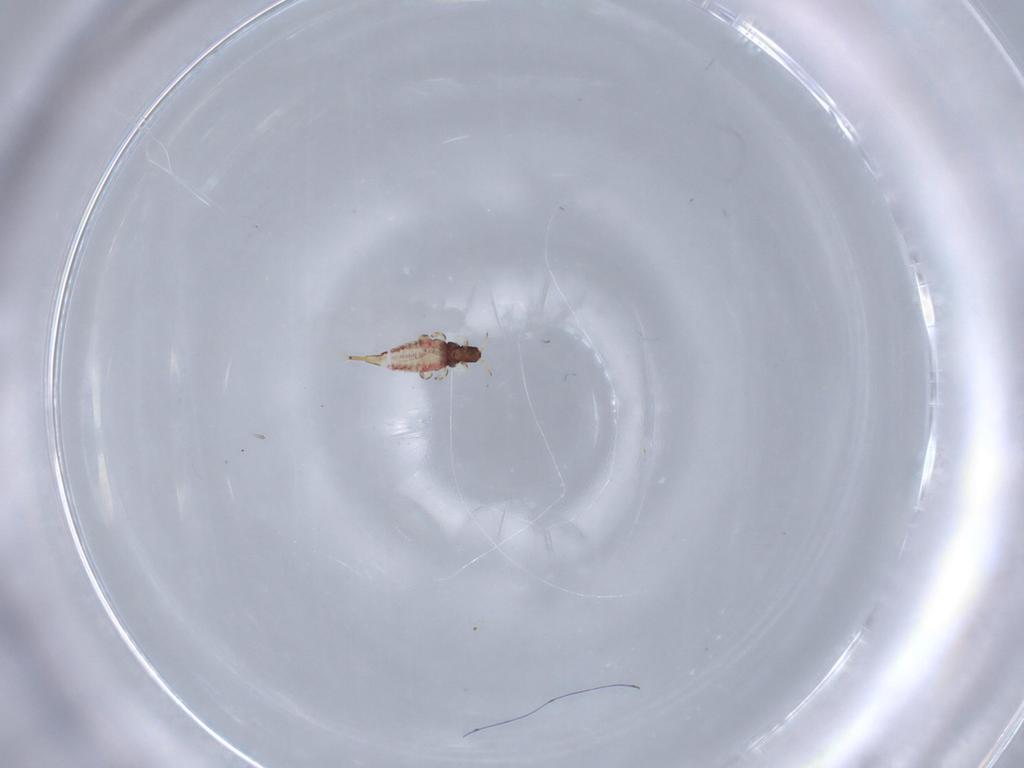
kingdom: Animalia
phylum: Arthropoda
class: Insecta
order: Thysanoptera
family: Phlaeothripidae
